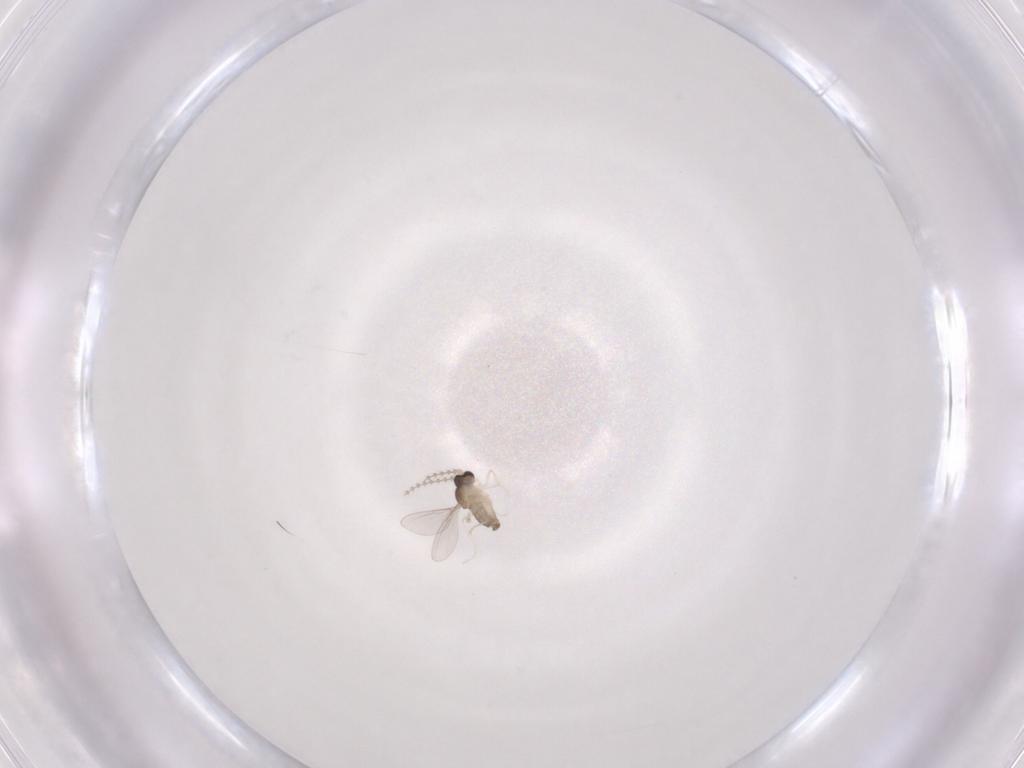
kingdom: Animalia
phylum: Arthropoda
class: Insecta
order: Diptera
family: Cecidomyiidae
